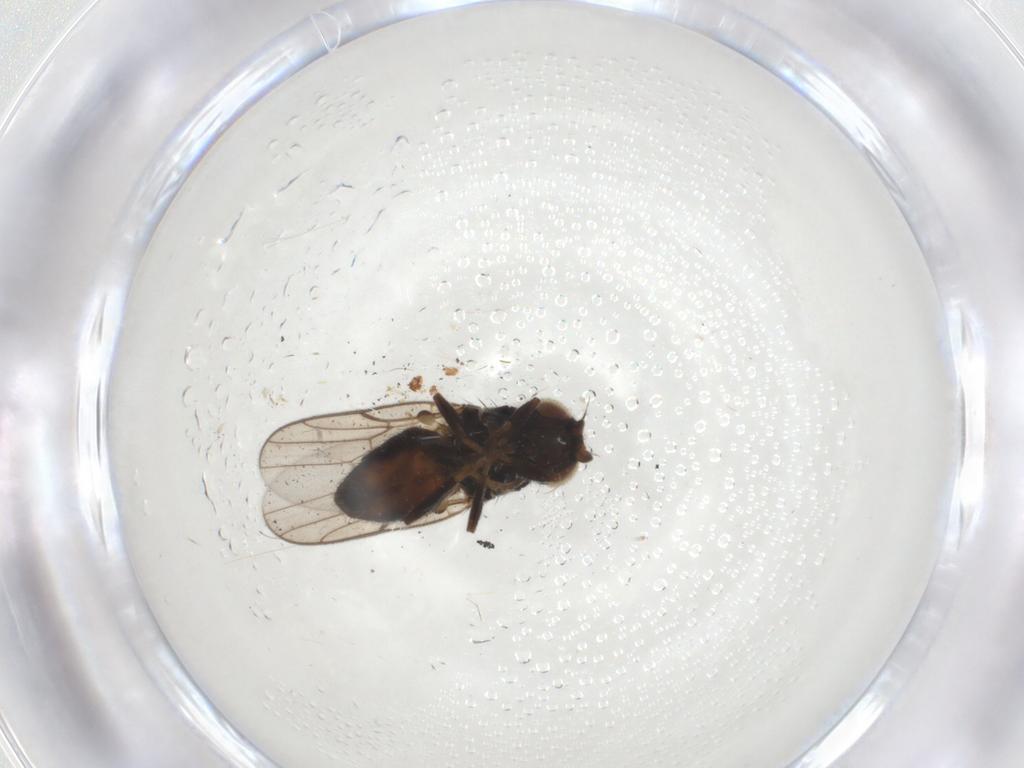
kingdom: Animalia
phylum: Arthropoda
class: Insecta
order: Diptera
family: Chloropidae
